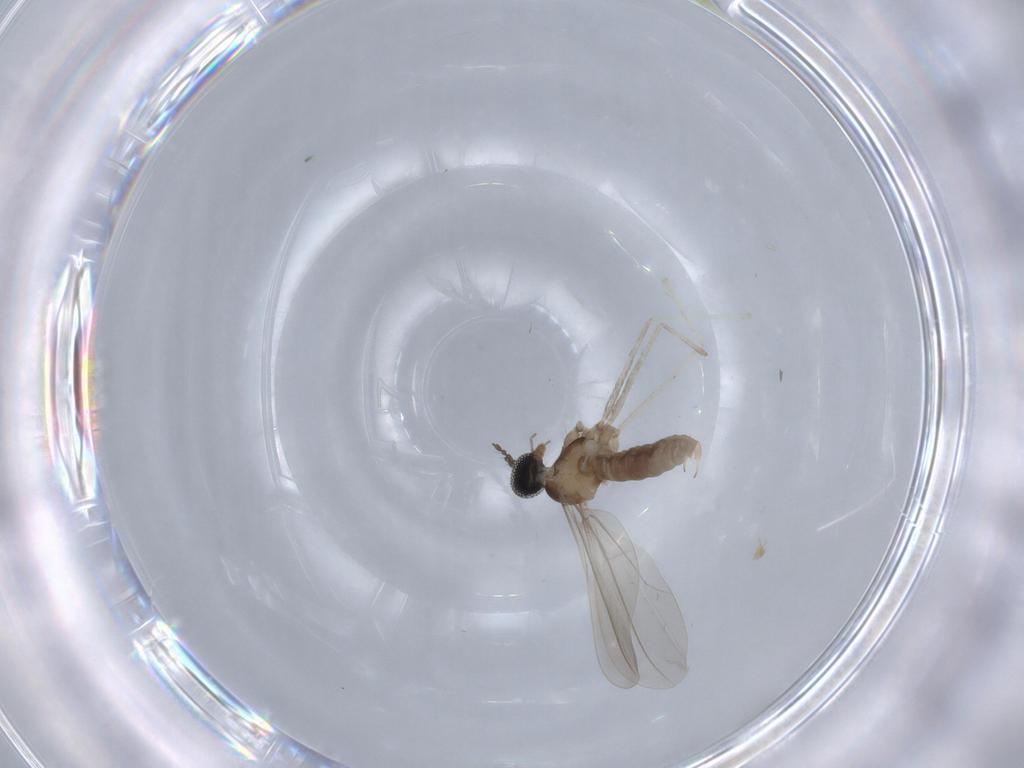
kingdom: Animalia
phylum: Arthropoda
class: Insecta
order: Diptera
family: Cecidomyiidae
